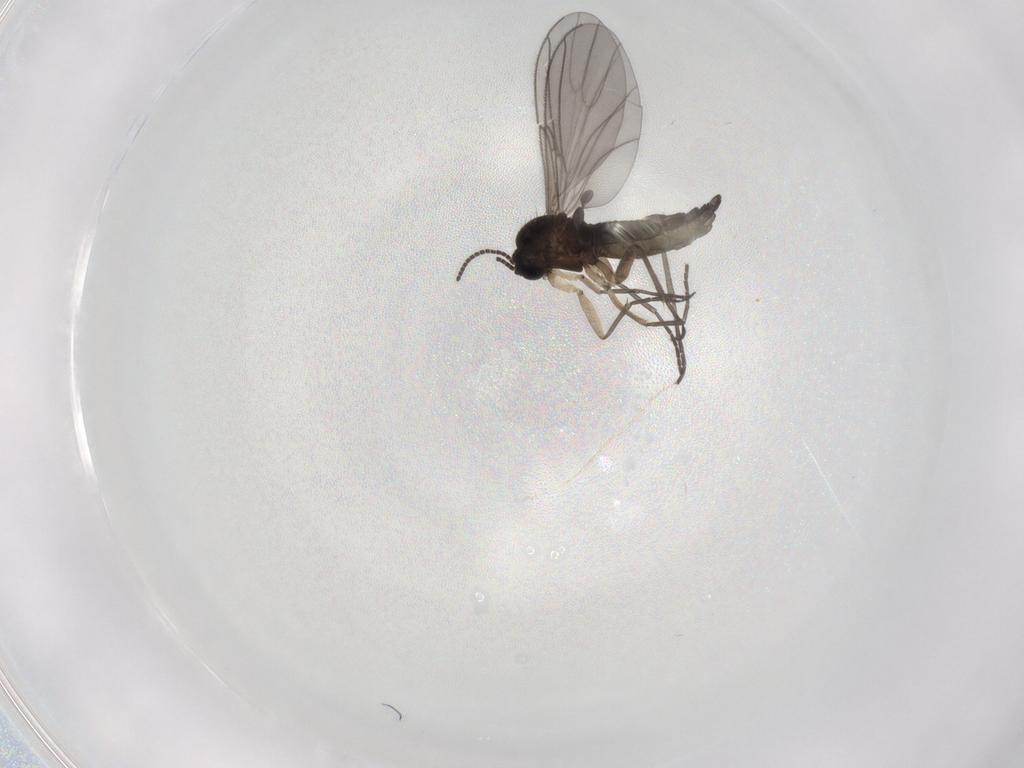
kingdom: Animalia
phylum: Arthropoda
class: Insecta
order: Diptera
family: Sciaridae
